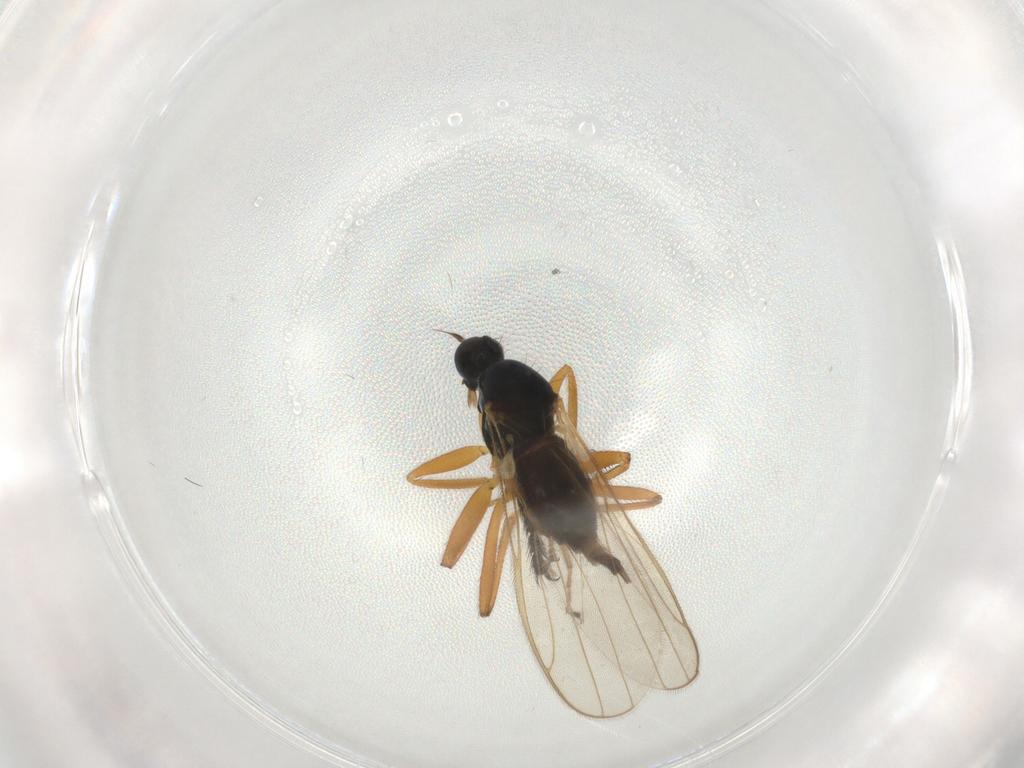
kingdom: Animalia
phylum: Arthropoda
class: Insecta
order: Diptera
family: Hybotidae
